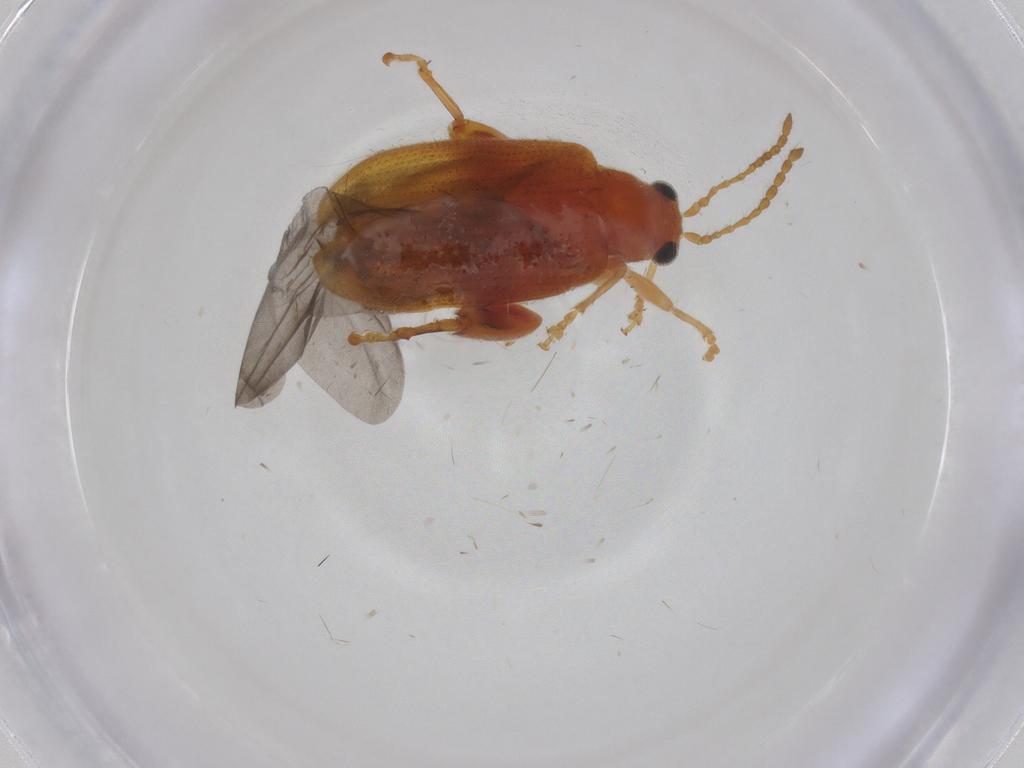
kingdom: Animalia
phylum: Arthropoda
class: Insecta
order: Coleoptera
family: Chrysomelidae
